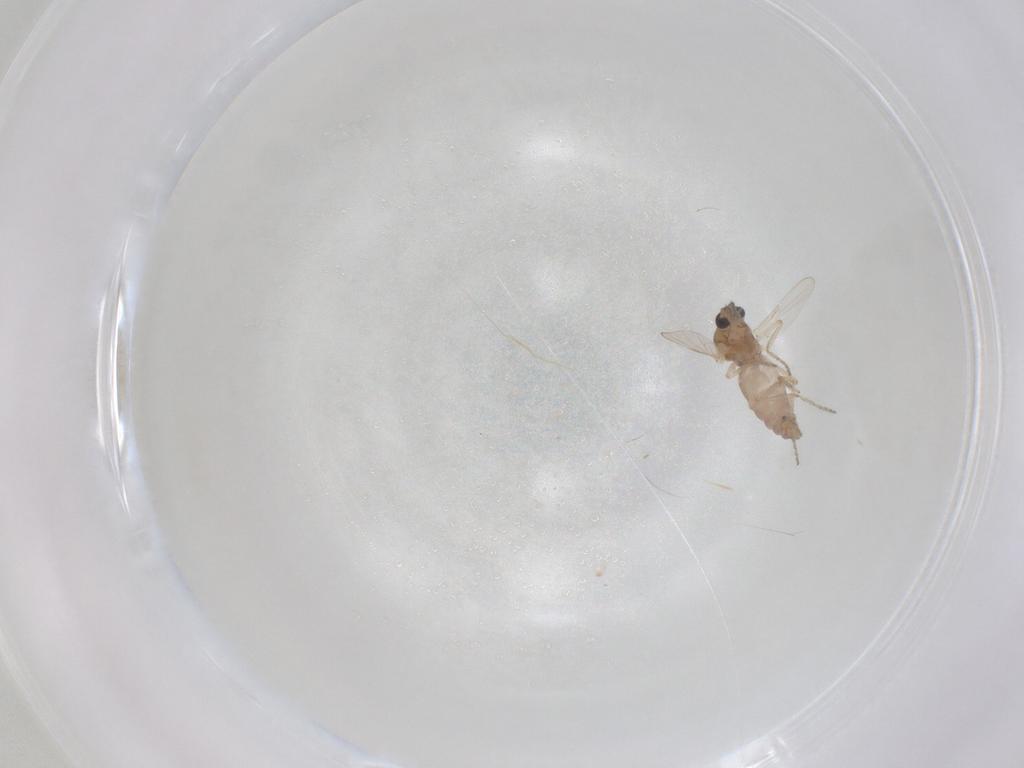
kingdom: Animalia
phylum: Arthropoda
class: Insecta
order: Diptera
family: Ceratopogonidae
